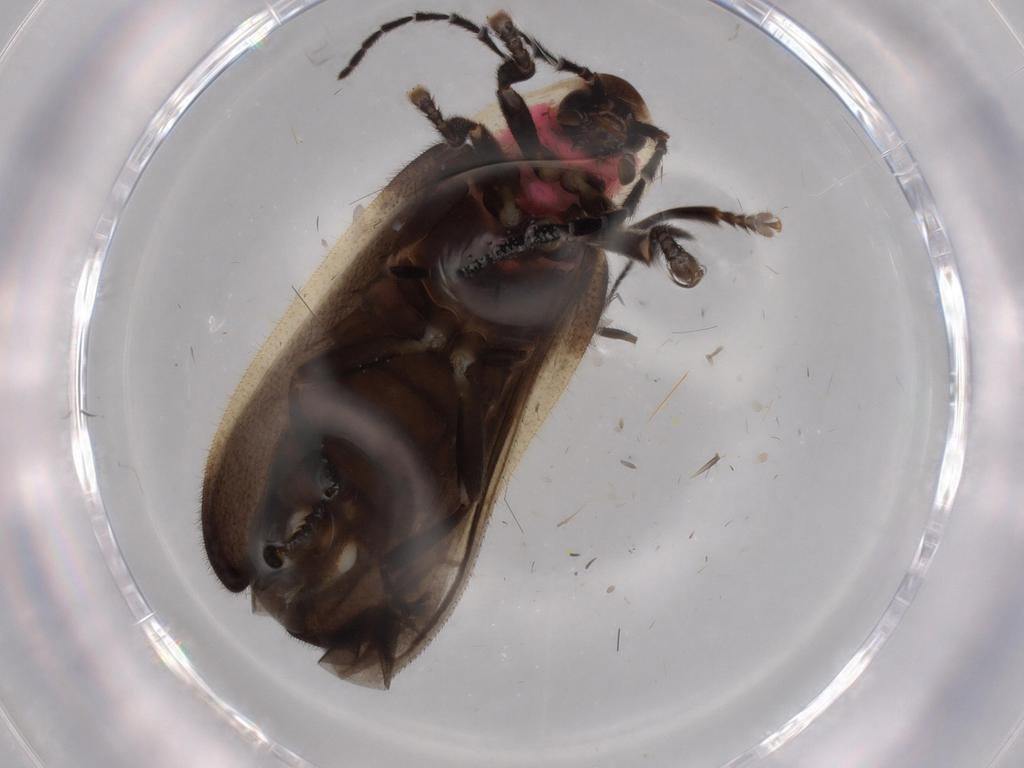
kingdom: Animalia
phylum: Arthropoda
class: Insecta
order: Coleoptera
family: Lampyridae
